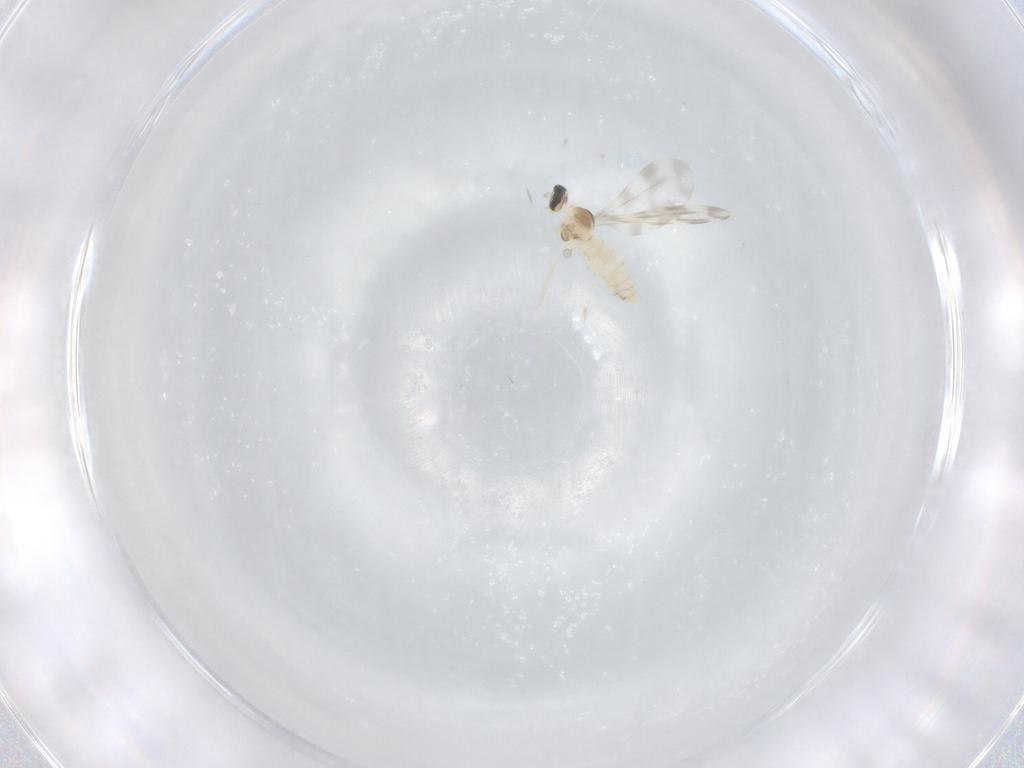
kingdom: Animalia
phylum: Arthropoda
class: Insecta
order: Diptera
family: Cecidomyiidae
